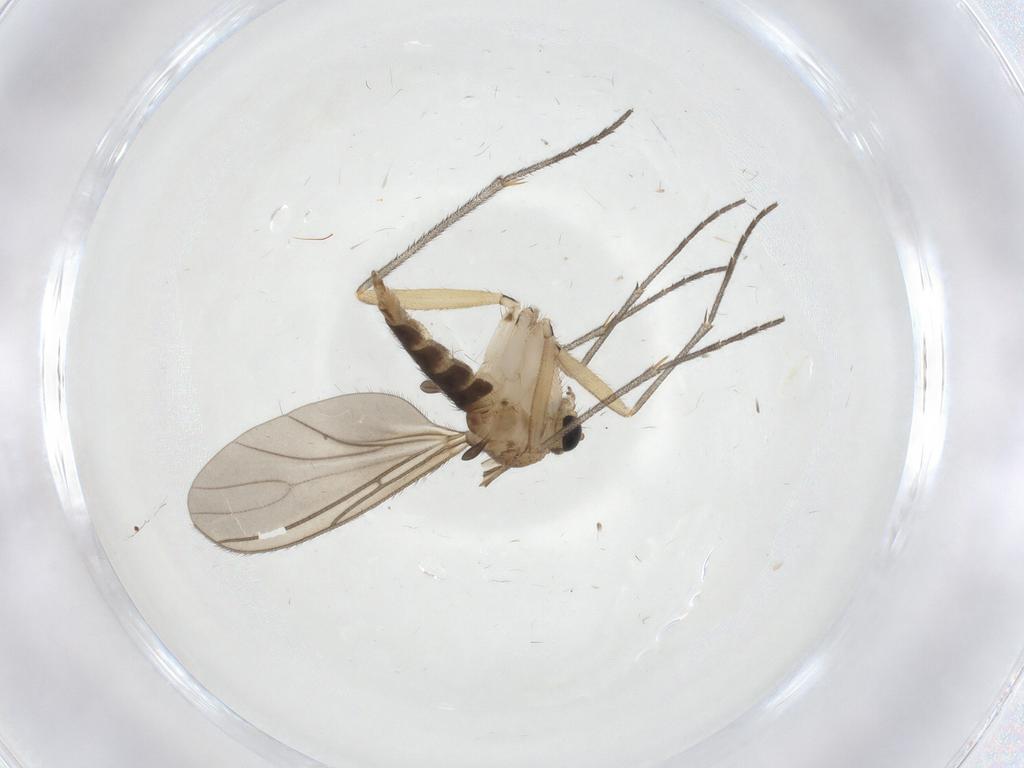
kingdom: Animalia
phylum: Arthropoda
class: Insecta
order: Diptera
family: Sciaridae
